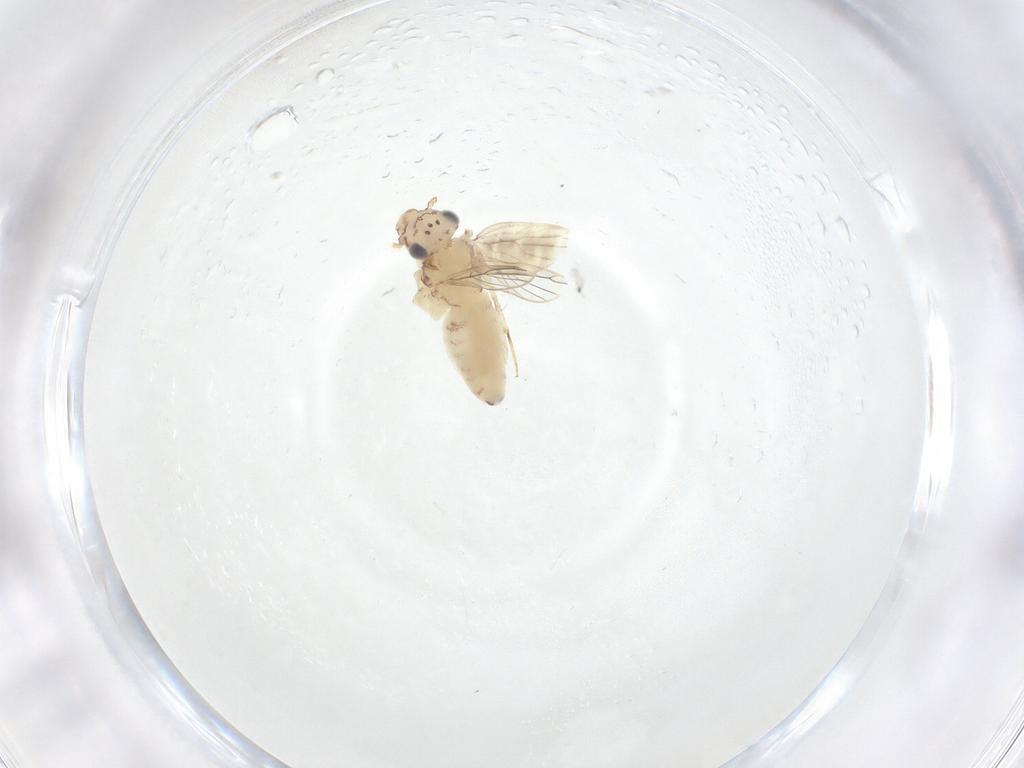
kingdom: Animalia
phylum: Arthropoda
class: Insecta
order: Psocodea
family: Lepidopsocidae
